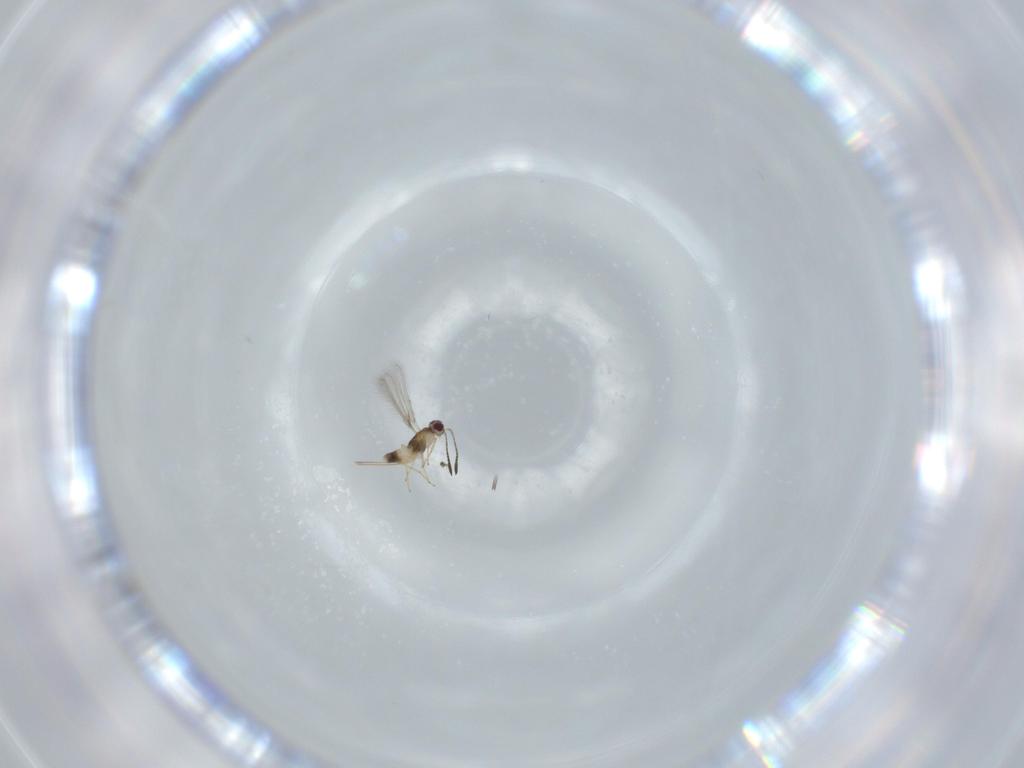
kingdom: Animalia
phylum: Arthropoda
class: Insecta
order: Hymenoptera
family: Mymaridae
